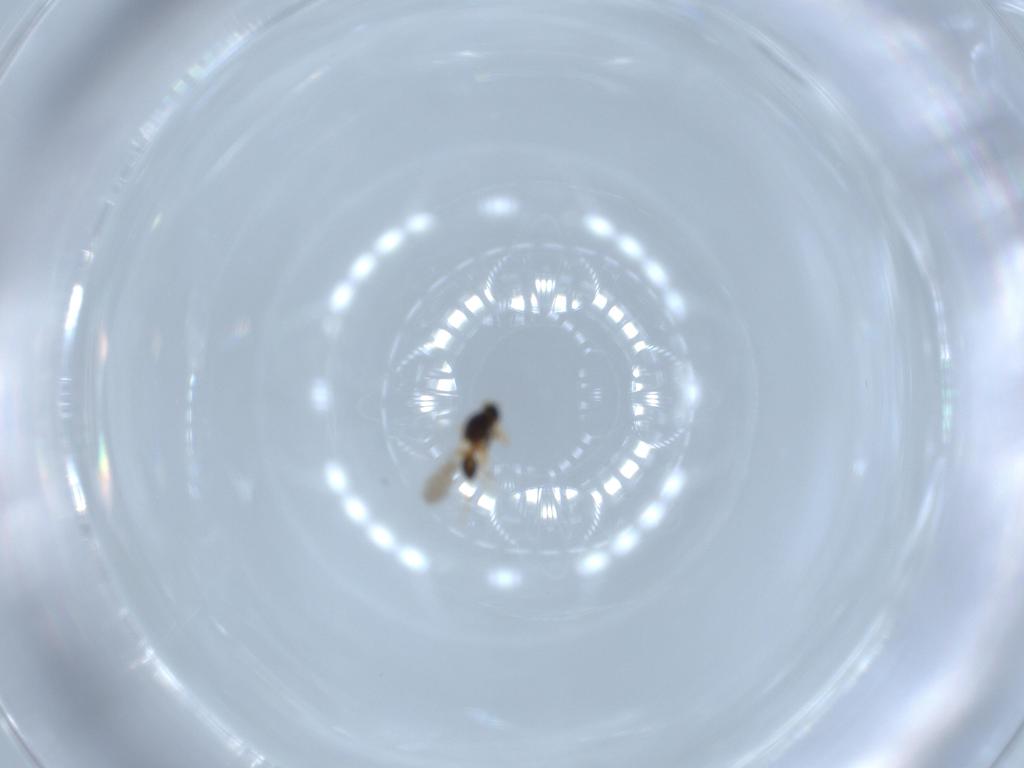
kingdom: Animalia
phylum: Arthropoda
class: Insecta
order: Hymenoptera
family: Platygastridae
